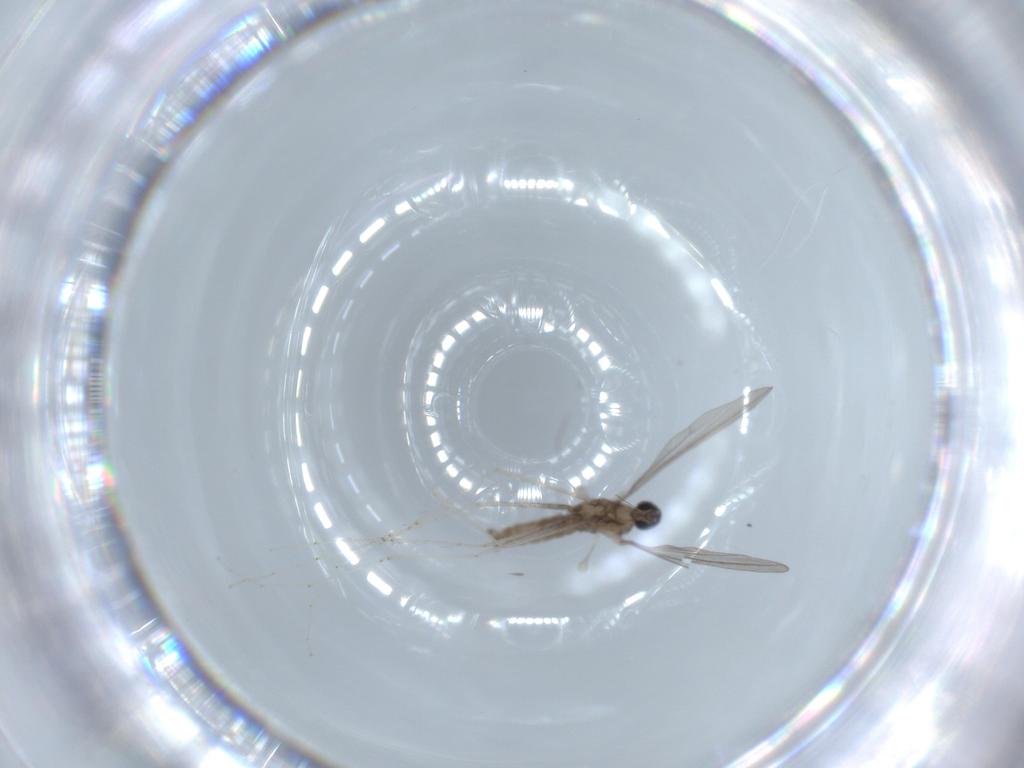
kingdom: Animalia
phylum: Arthropoda
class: Insecta
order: Diptera
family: Cecidomyiidae
